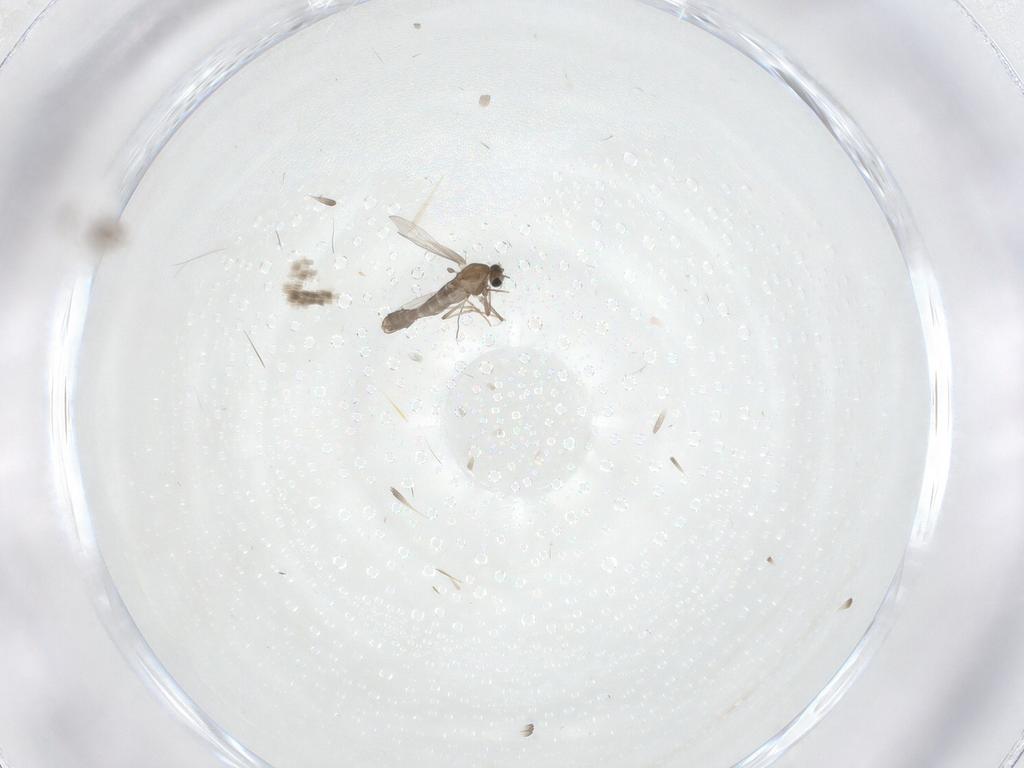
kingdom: Animalia
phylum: Arthropoda
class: Insecta
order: Diptera
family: Chironomidae
